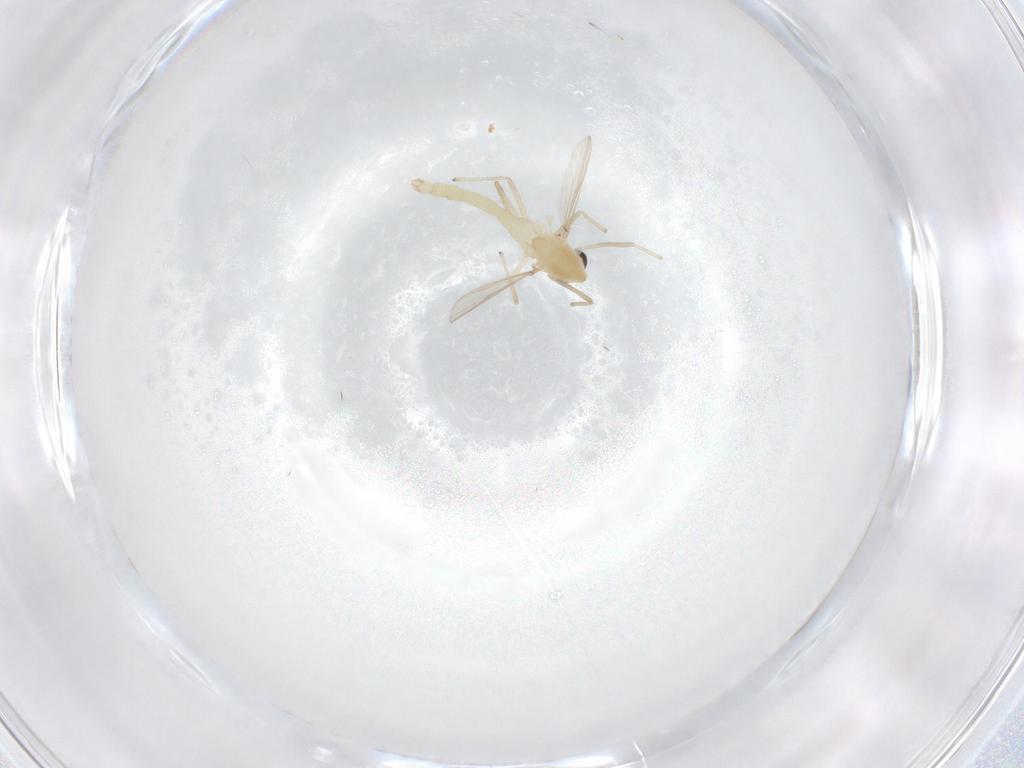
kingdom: Animalia
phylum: Arthropoda
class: Insecta
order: Diptera
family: Chironomidae
